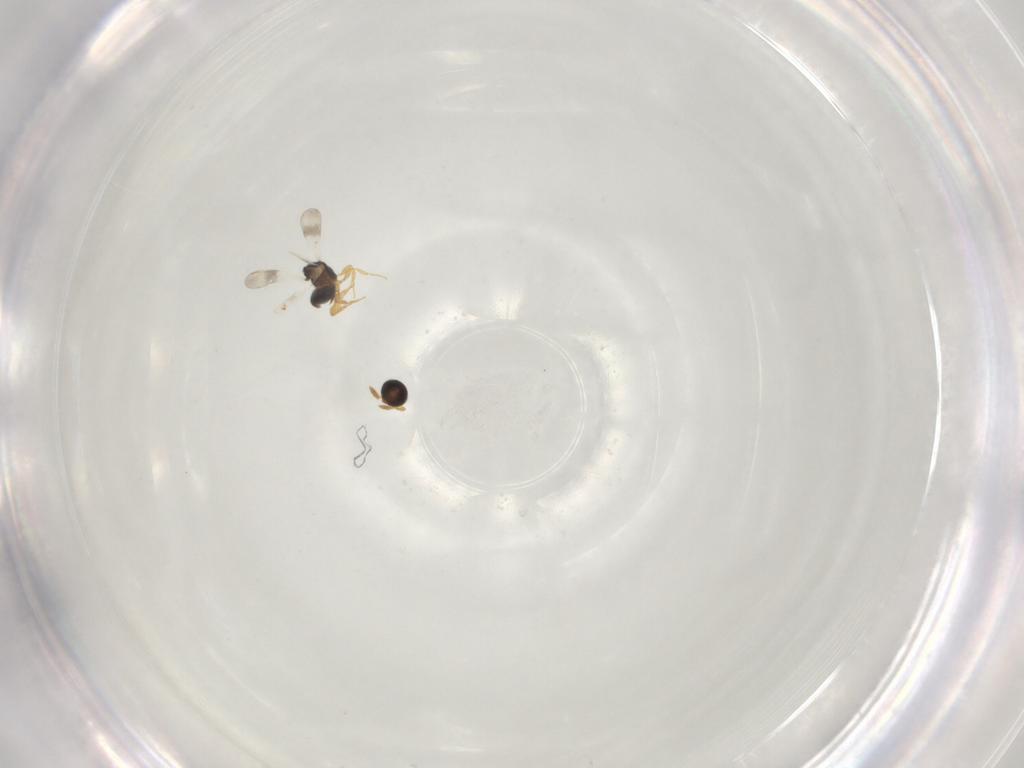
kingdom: Animalia
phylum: Arthropoda
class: Insecta
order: Hymenoptera
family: Platygastridae
